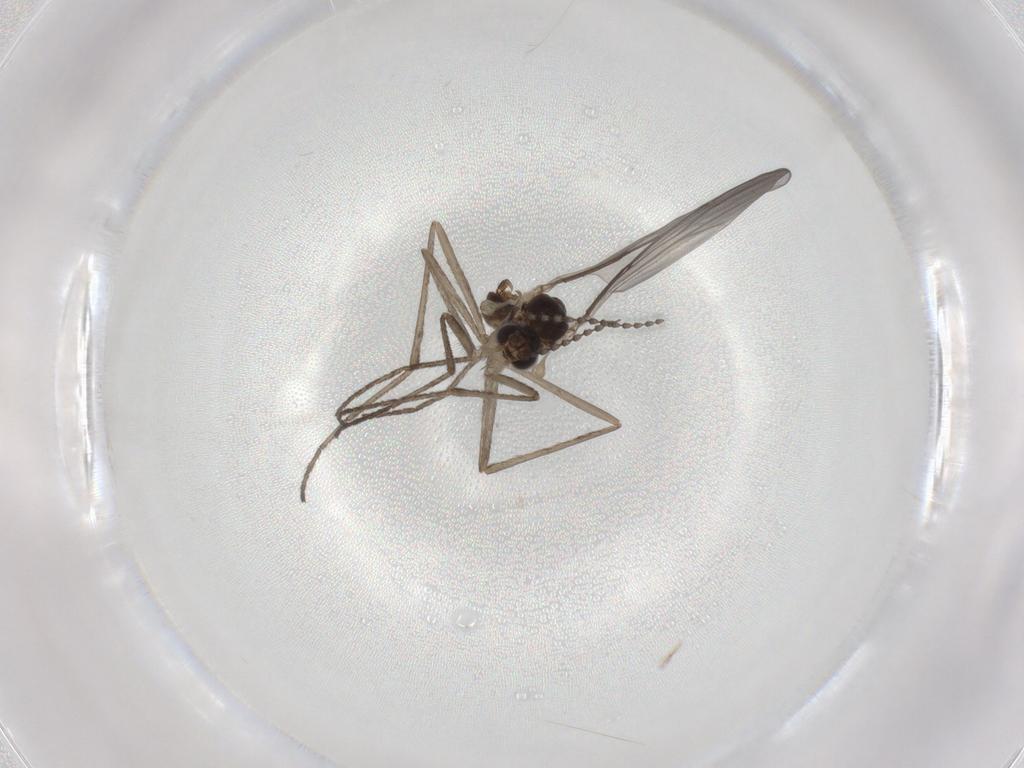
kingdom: Animalia
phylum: Arthropoda
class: Insecta
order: Diptera
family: Cecidomyiidae
